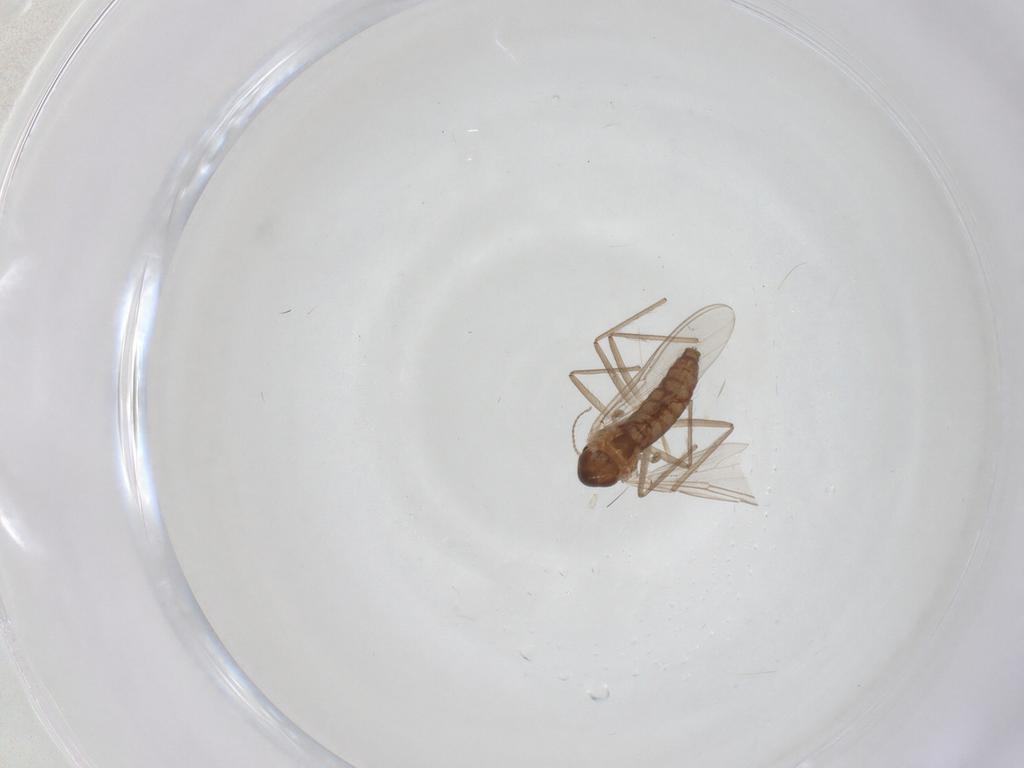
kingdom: Animalia
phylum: Arthropoda
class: Insecta
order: Diptera
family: Chironomidae
